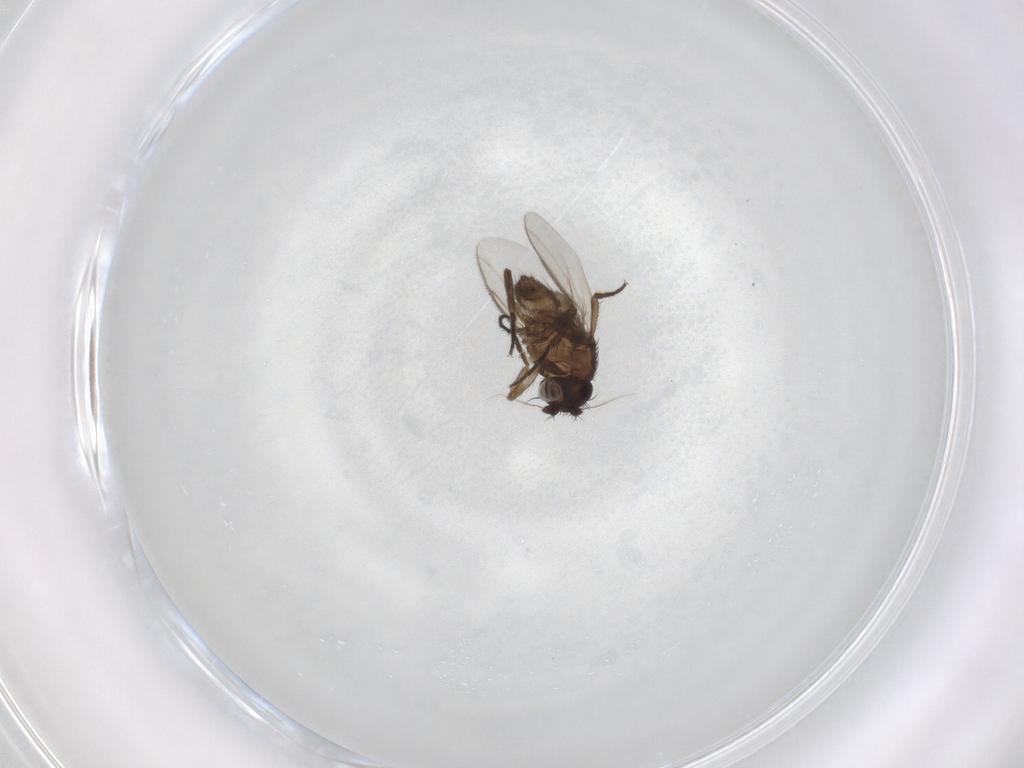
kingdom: Animalia
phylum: Arthropoda
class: Insecta
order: Diptera
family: Sphaeroceridae
